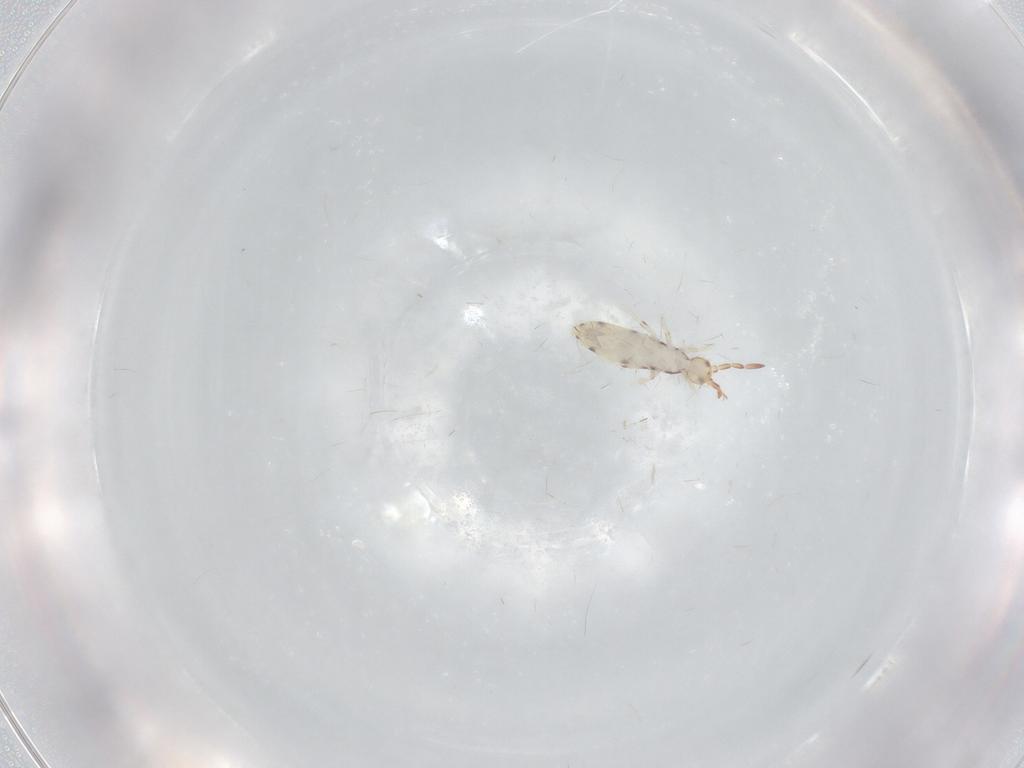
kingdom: Animalia
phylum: Arthropoda
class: Collembola
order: Entomobryomorpha
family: Entomobryidae
